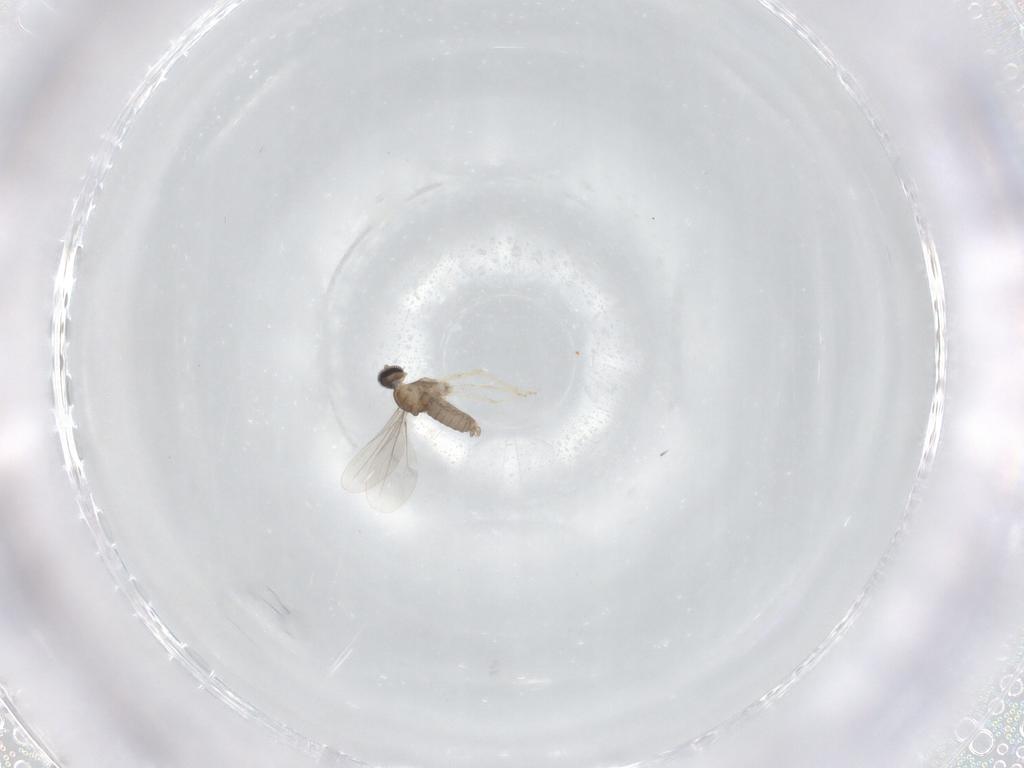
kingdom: Animalia
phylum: Arthropoda
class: Insecta
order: Diptera
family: Cecidomyiidae
